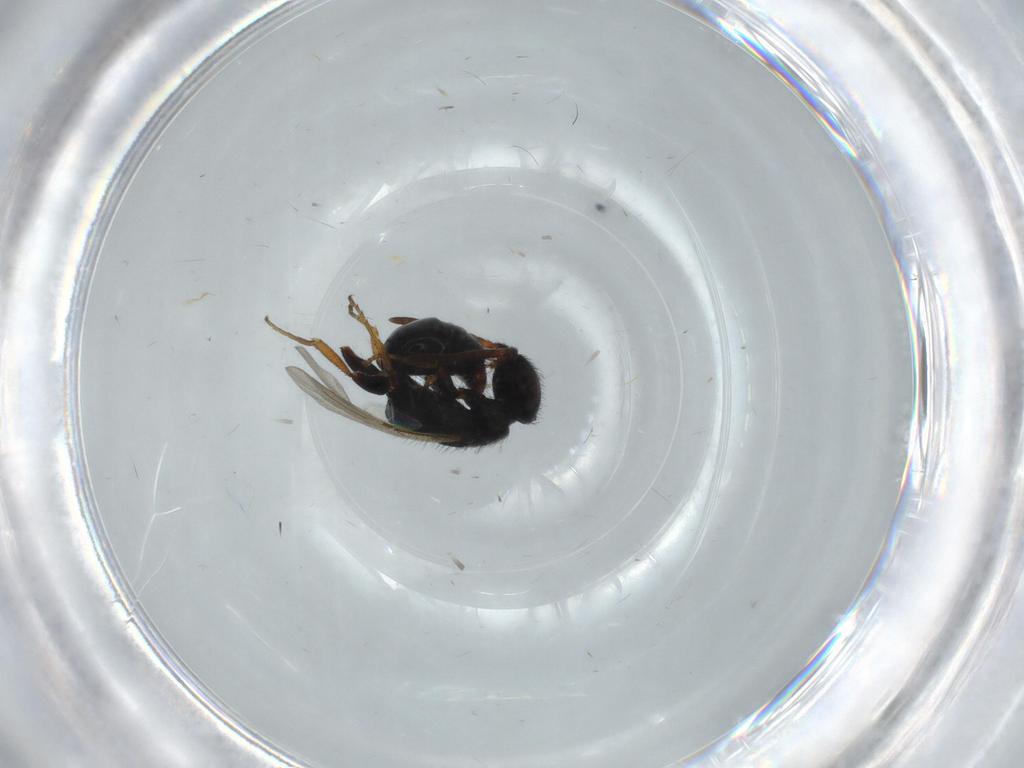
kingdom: Animalia
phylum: Arthropoda
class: Insecta
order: Hymenoptera
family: Bethylidae
